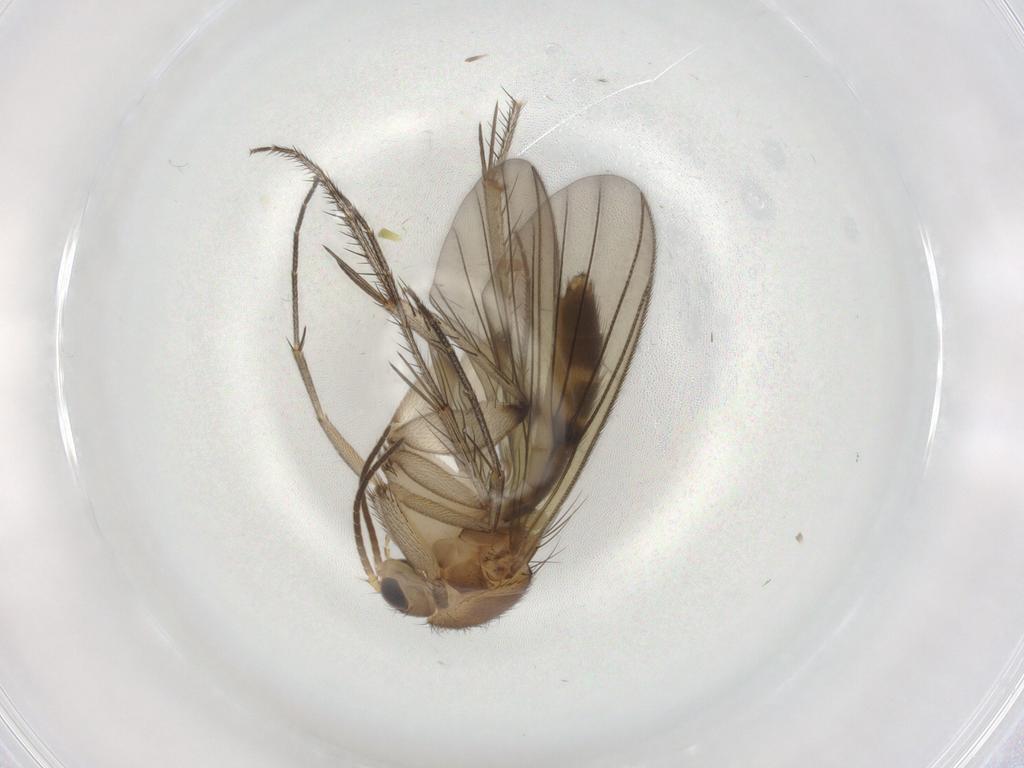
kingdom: Animalia
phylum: Arthropoda
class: Insecta
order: Diptera
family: Mycetophilidae
